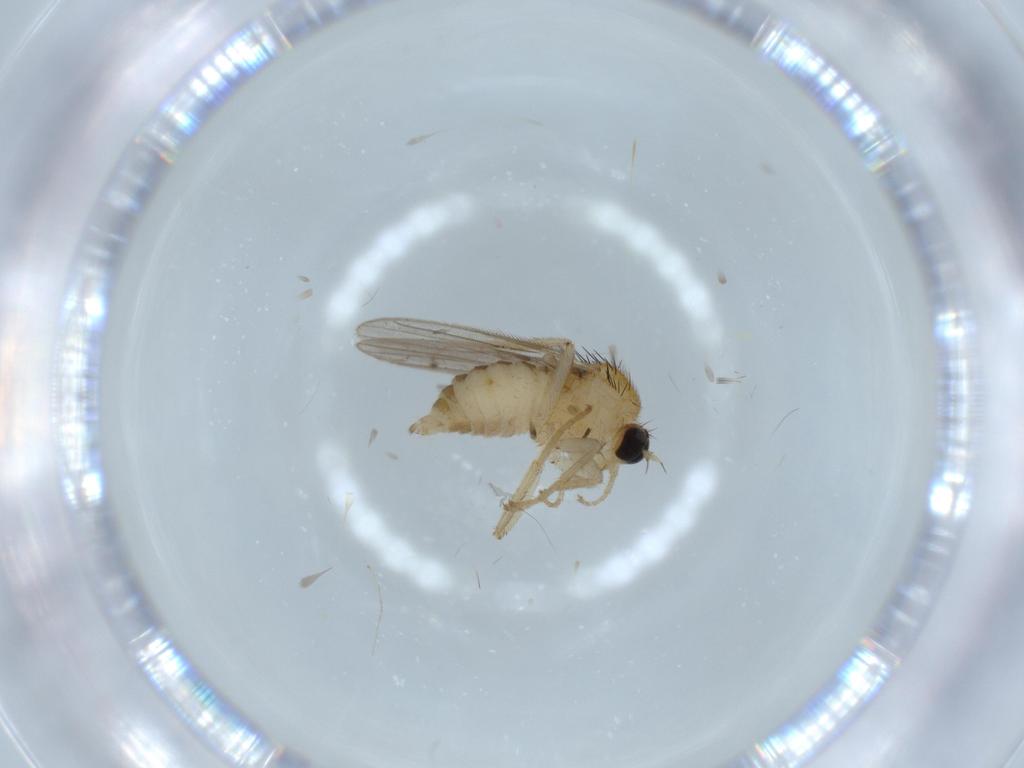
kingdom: Animalia
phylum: Arthropoda
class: Insecta
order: Diptera
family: Hybotidae
